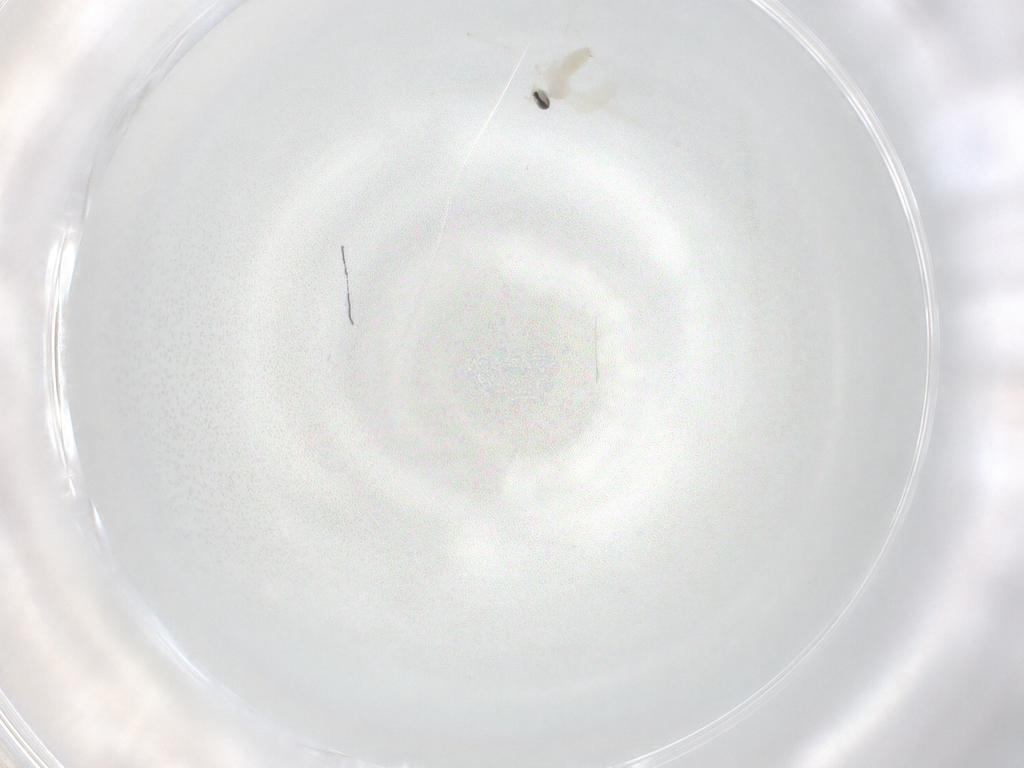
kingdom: Animalia
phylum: Arthropoda
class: Insecta
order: Diptera
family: Cecidomyiidae
